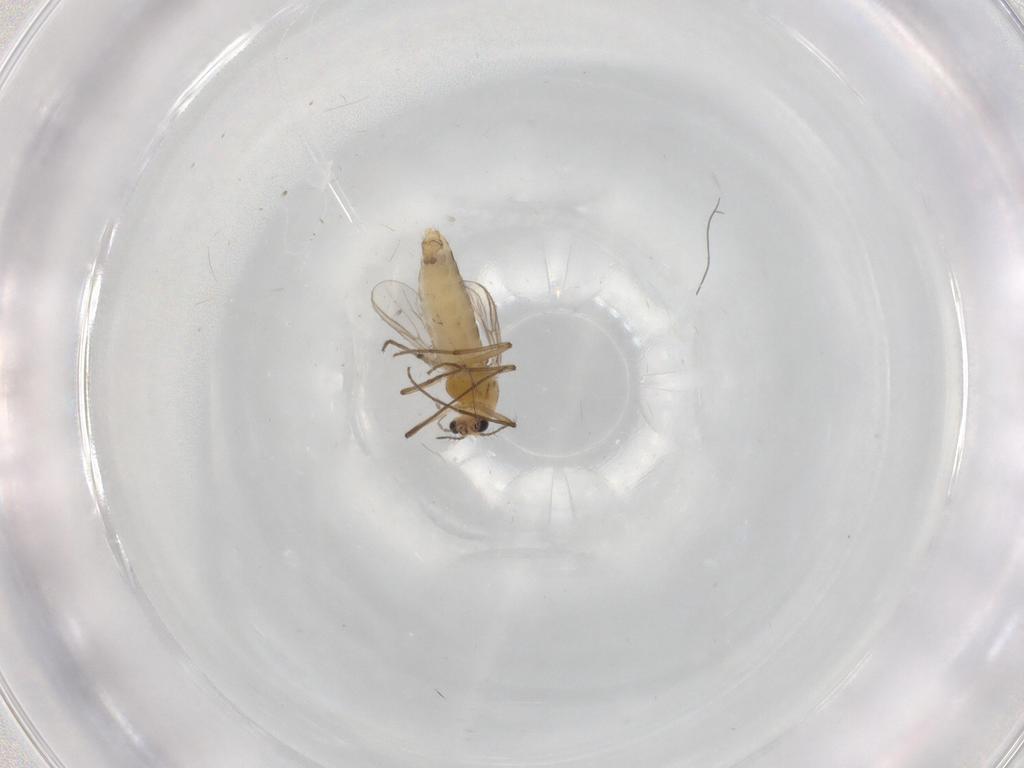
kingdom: Animalia
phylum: Arthropoda
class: Insecta
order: Diptera
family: Chironomidae
